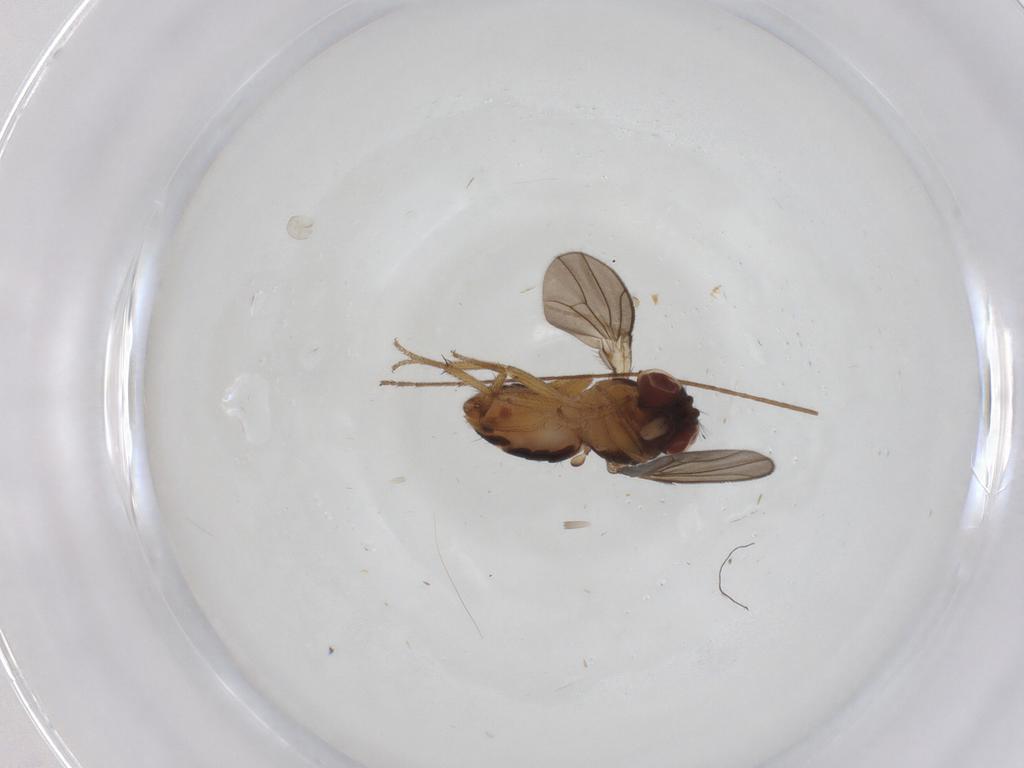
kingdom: Animalia
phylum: Arthropoda
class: Insecta
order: Diptera
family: Drosophilidae
